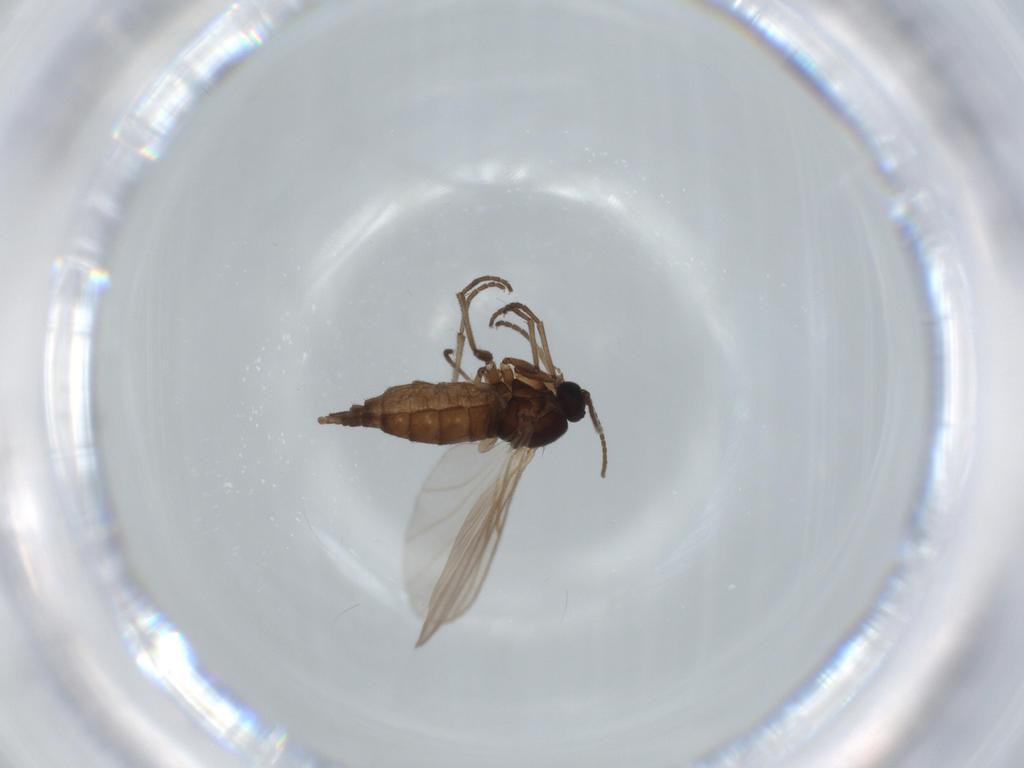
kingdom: Animalia
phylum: Arthropoda
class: Insecta
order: Diptera
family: Sciaridae
